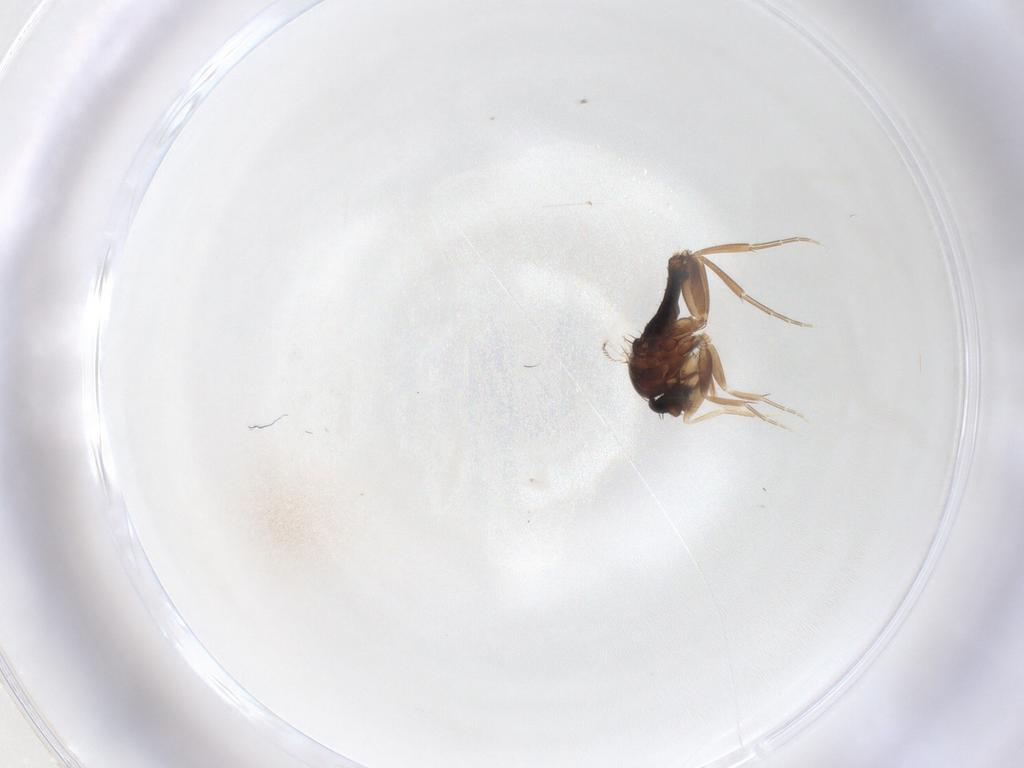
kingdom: Animalia
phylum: Arthropoda
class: Insecta
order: Diptera
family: Phoridae
